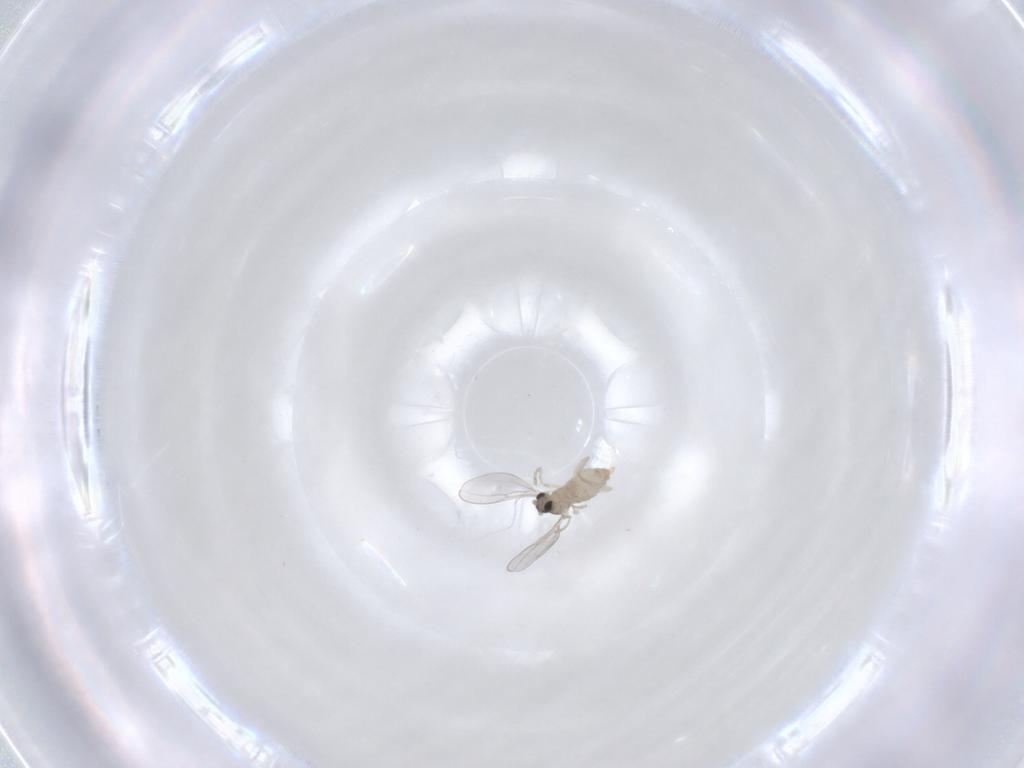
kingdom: Animalia
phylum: Arthropoda
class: Insecta
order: Diptera
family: Cecidomyiidae
